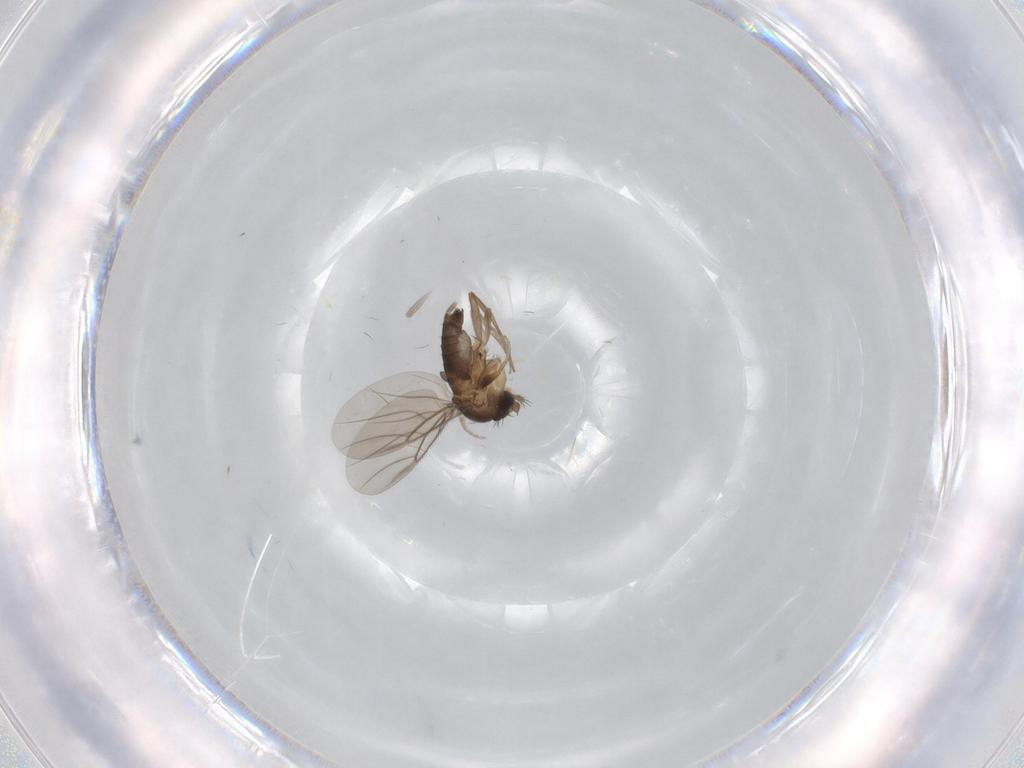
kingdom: Animalia
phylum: Arthropoda
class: Insecta
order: Diptera
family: Phoridae
